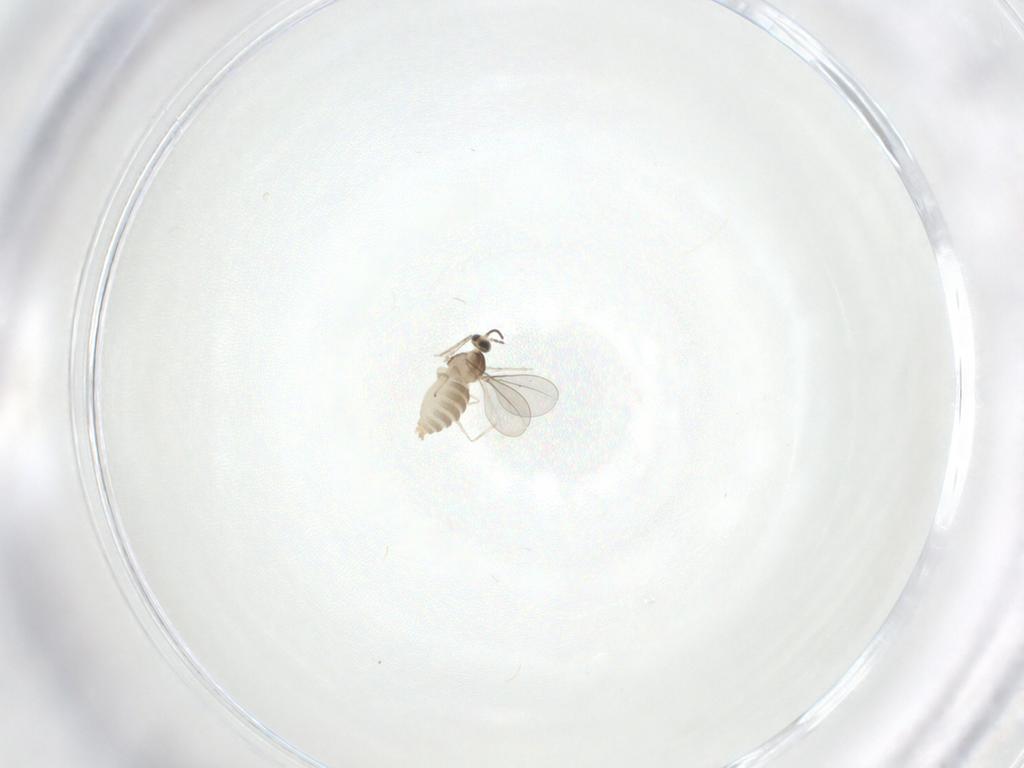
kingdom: Animalia
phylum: Arthropoda
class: Insecta
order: Diptera
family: Cecidomyiidae
